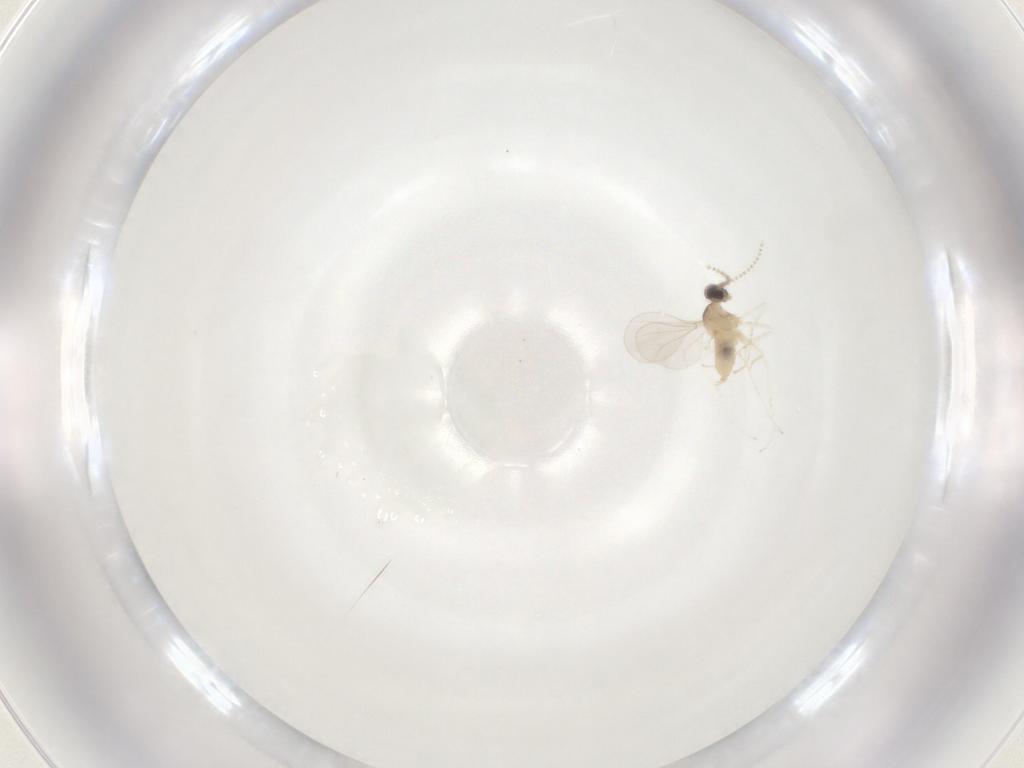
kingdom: Animalia
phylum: Arthropoda
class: Insecta
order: Diptera
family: Cecidomyiidae
